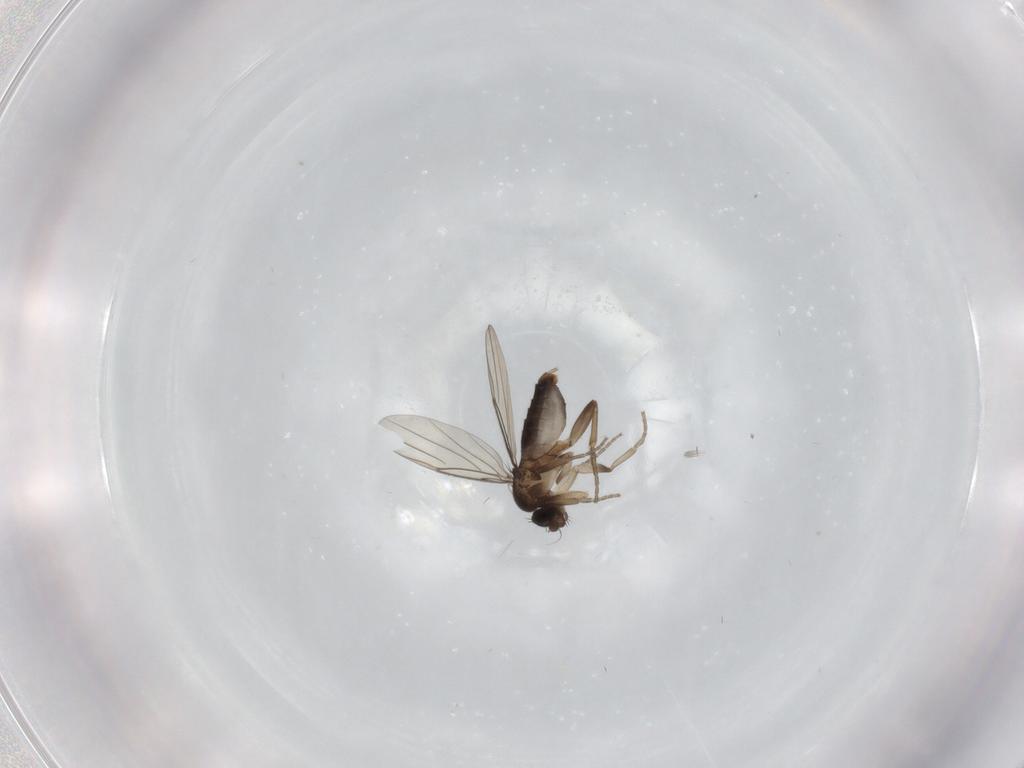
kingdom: Animalia
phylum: Arthropoda
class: Insecta
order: Diptera
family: Phoridae
